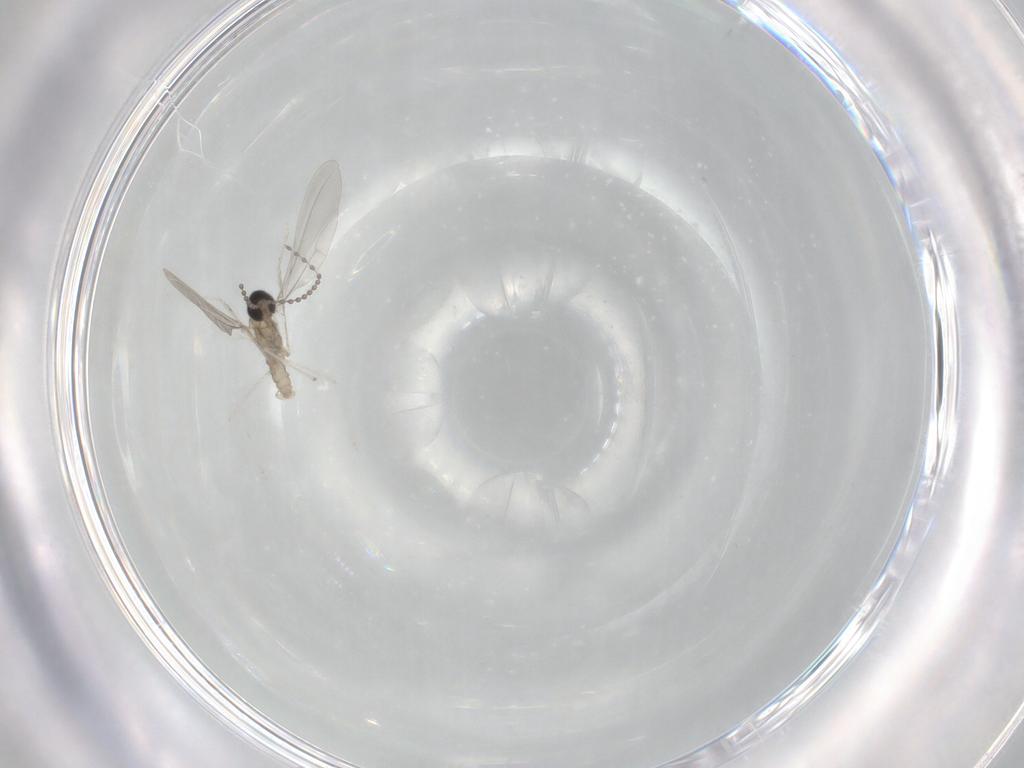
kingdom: Animalia
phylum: Arthropoda
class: Insecta
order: Diptera
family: Cecidomyiidae
